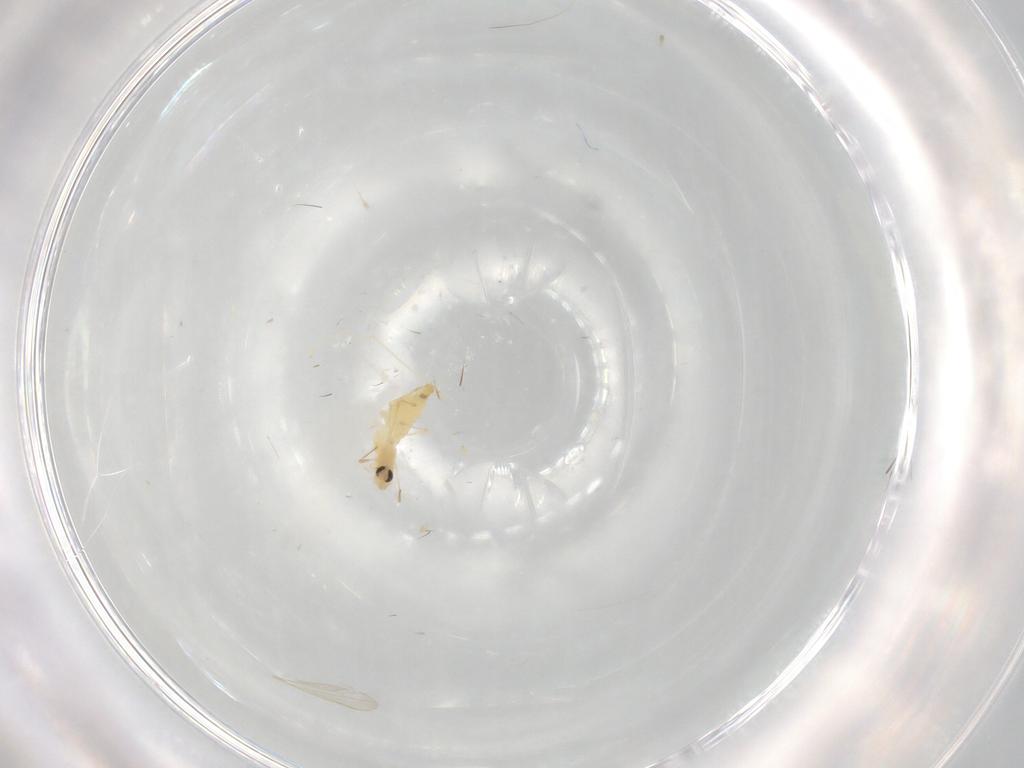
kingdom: Animalia
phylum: Arthropoda
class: Insecta
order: Diptera
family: Chironomidae
